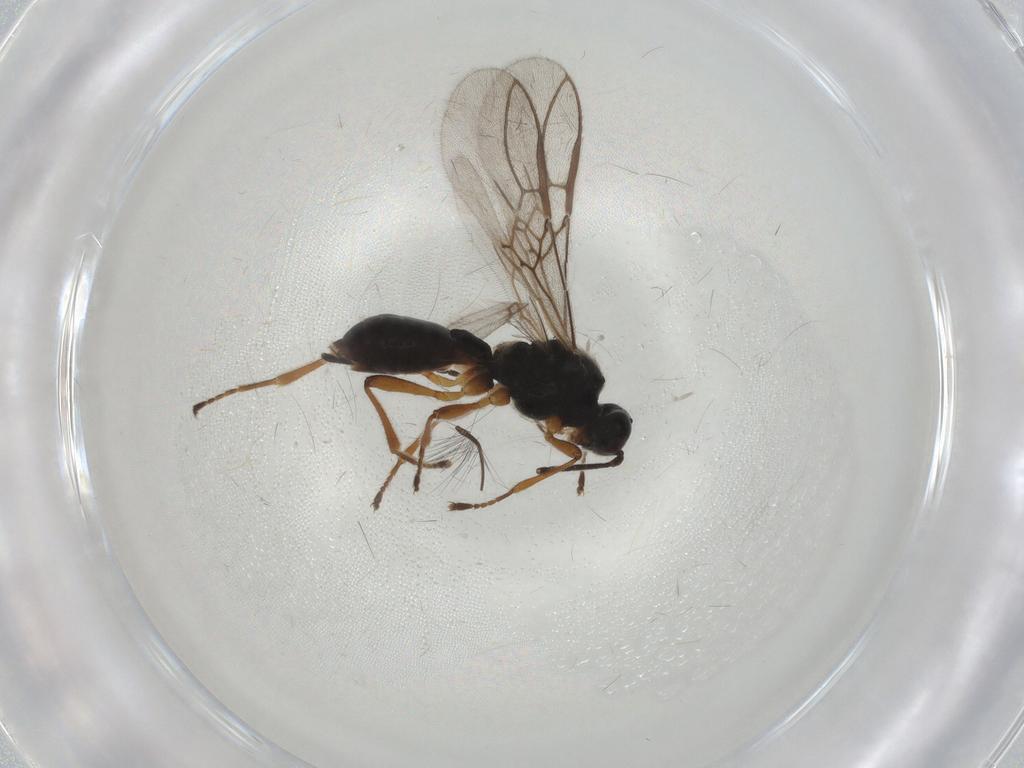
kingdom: Animalia
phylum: Arthropoda
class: Insecta
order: Hymenoptera
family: Braconidae
